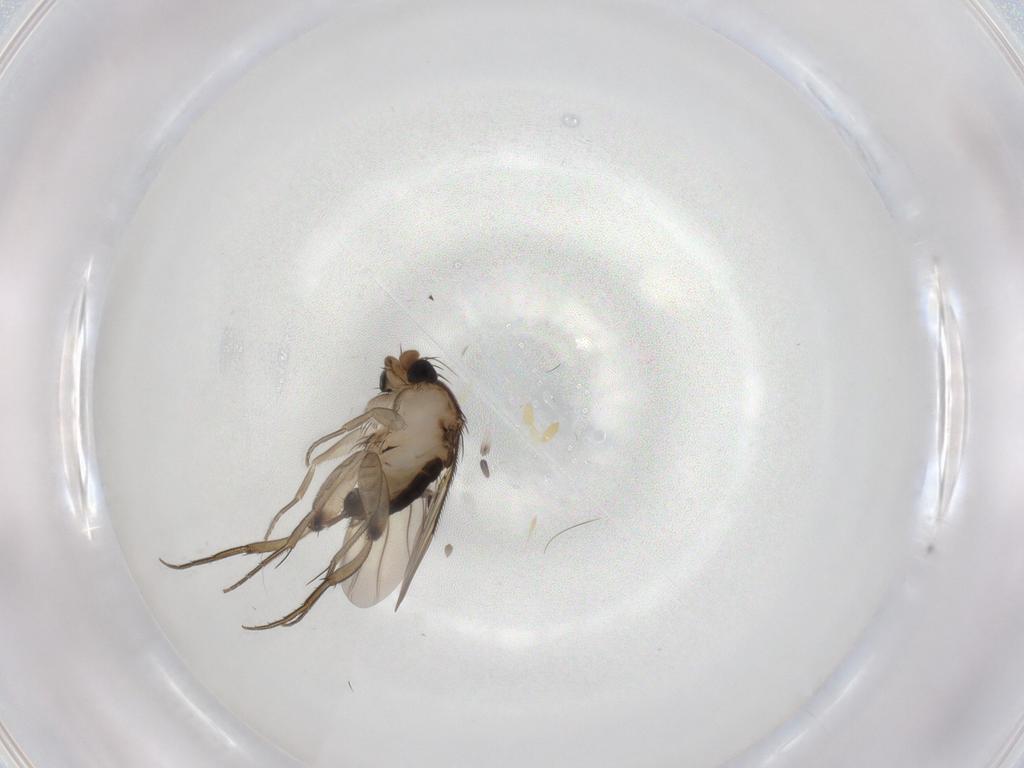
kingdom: Animalia
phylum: Arthropoda
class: Insecta
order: Diptera
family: Phoridae
